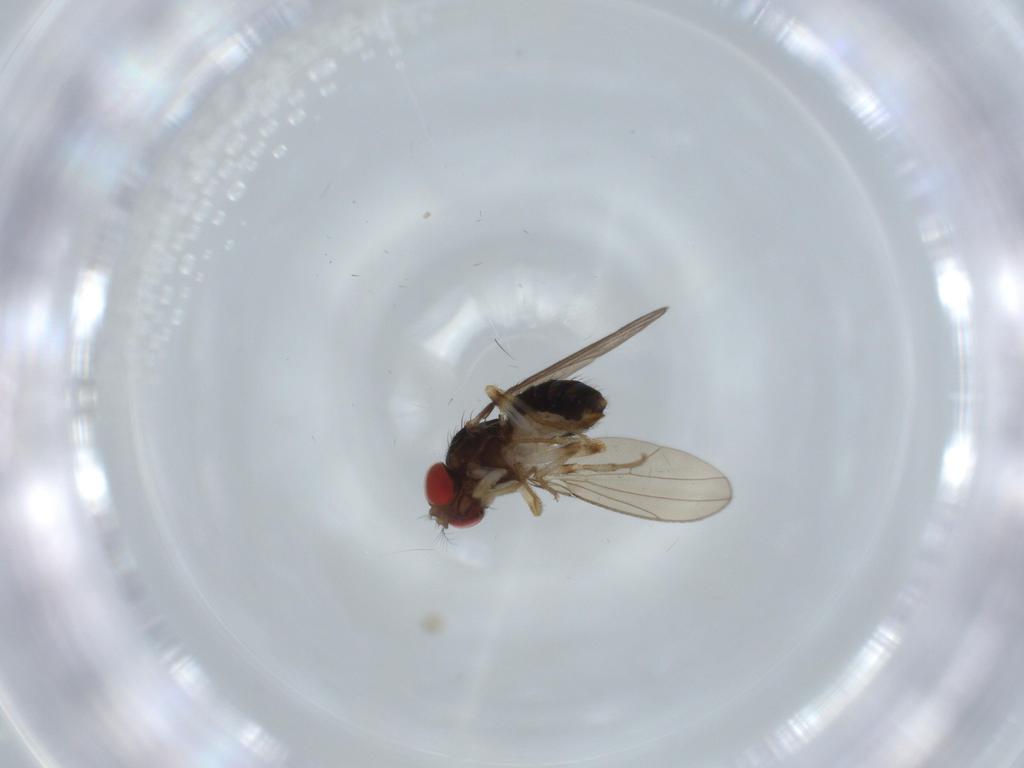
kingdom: Animalia
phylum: Arthropoda
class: Insecta
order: Diptera
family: Drosophilidae
